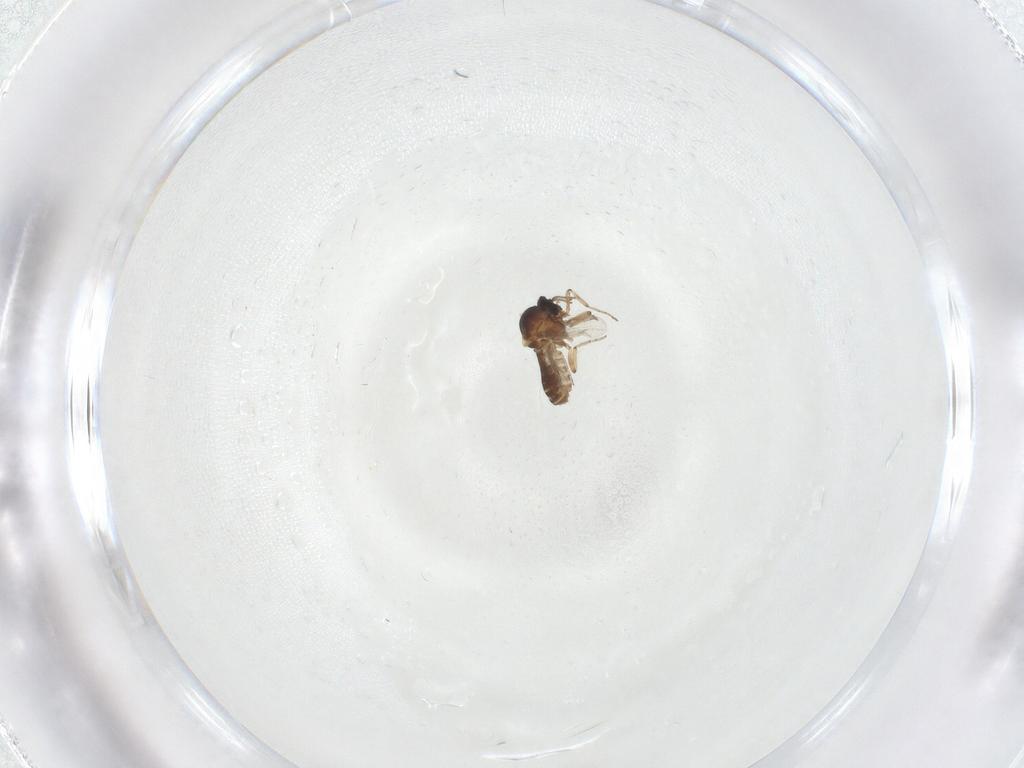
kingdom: Animalia
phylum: Arthropoda
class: Insecta
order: Diptera
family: Ceratopogonidae
